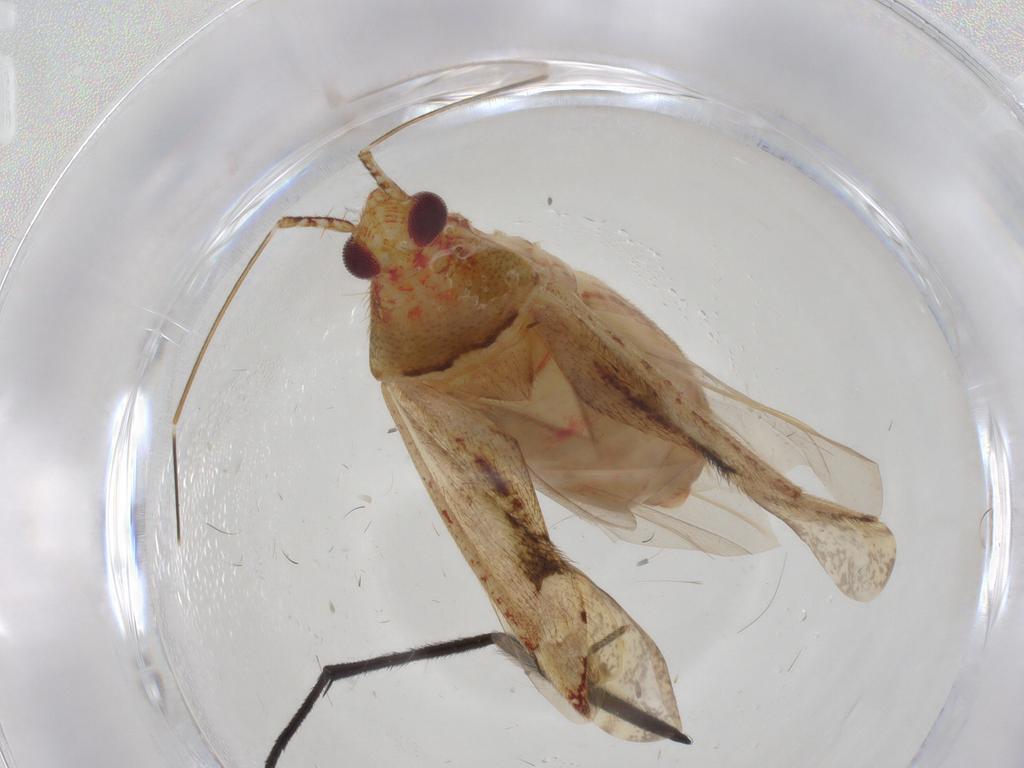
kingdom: Animalia
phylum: Arthropoda
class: Insecta
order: Hemiptera
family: Miridae
